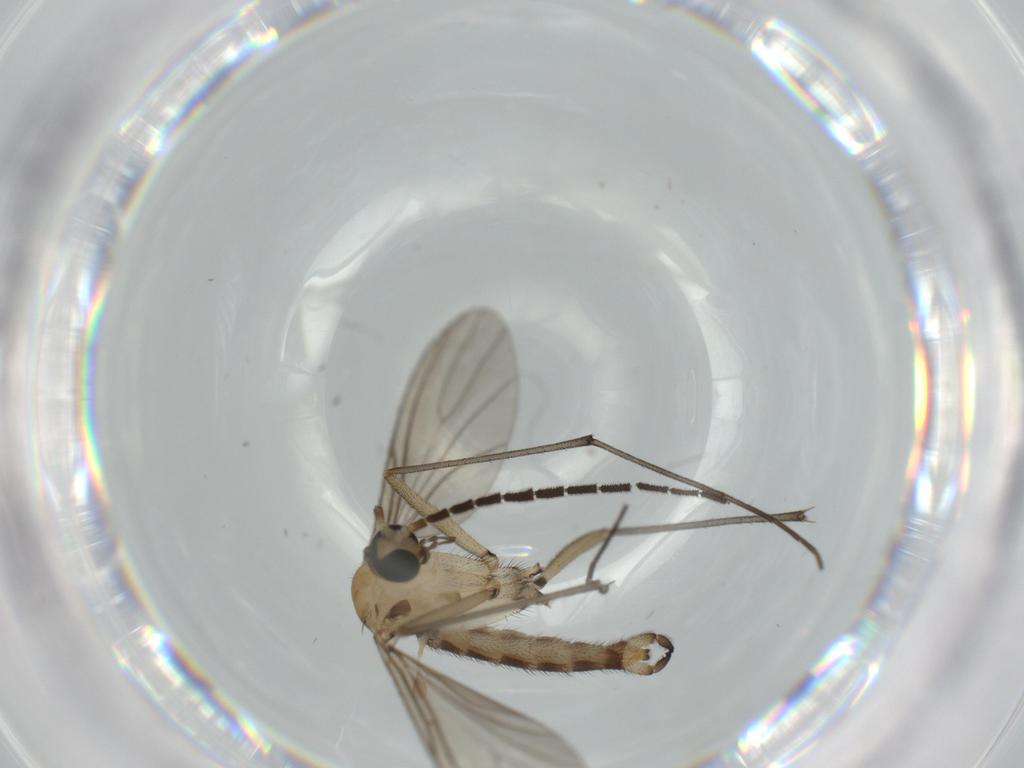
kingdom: Animalia
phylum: Arthropoda
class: Insecta
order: Diptera
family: Sciaridae
